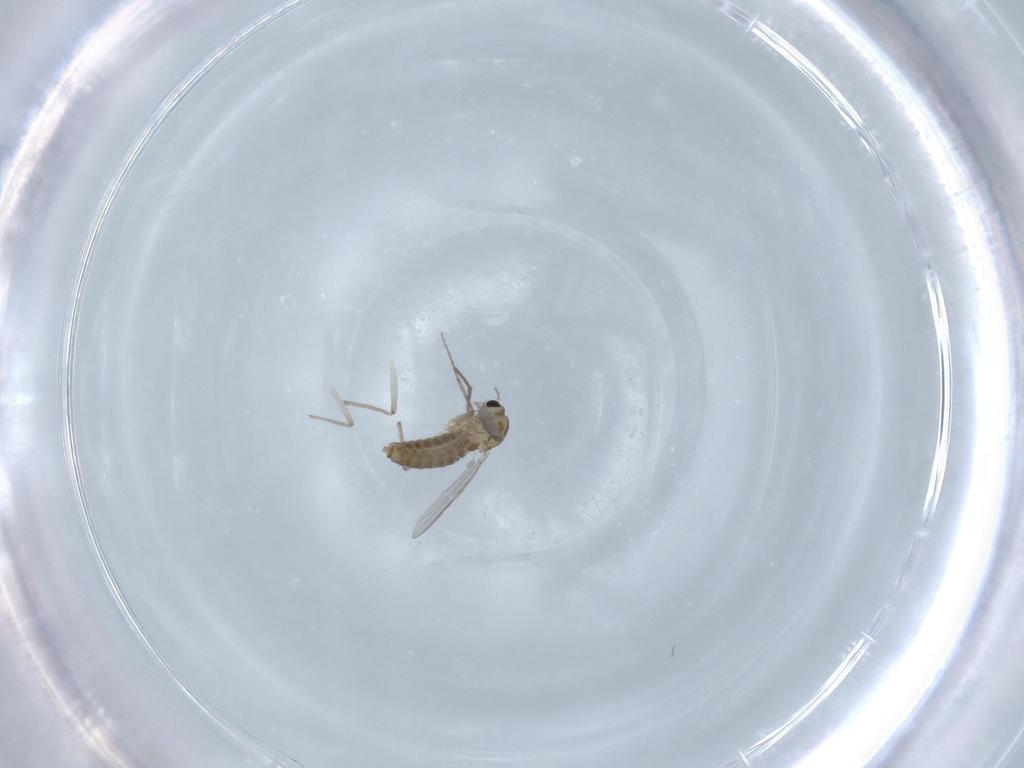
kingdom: Animalia
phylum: Arthropoda
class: Insecta
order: Diptera
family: Chironomidae
